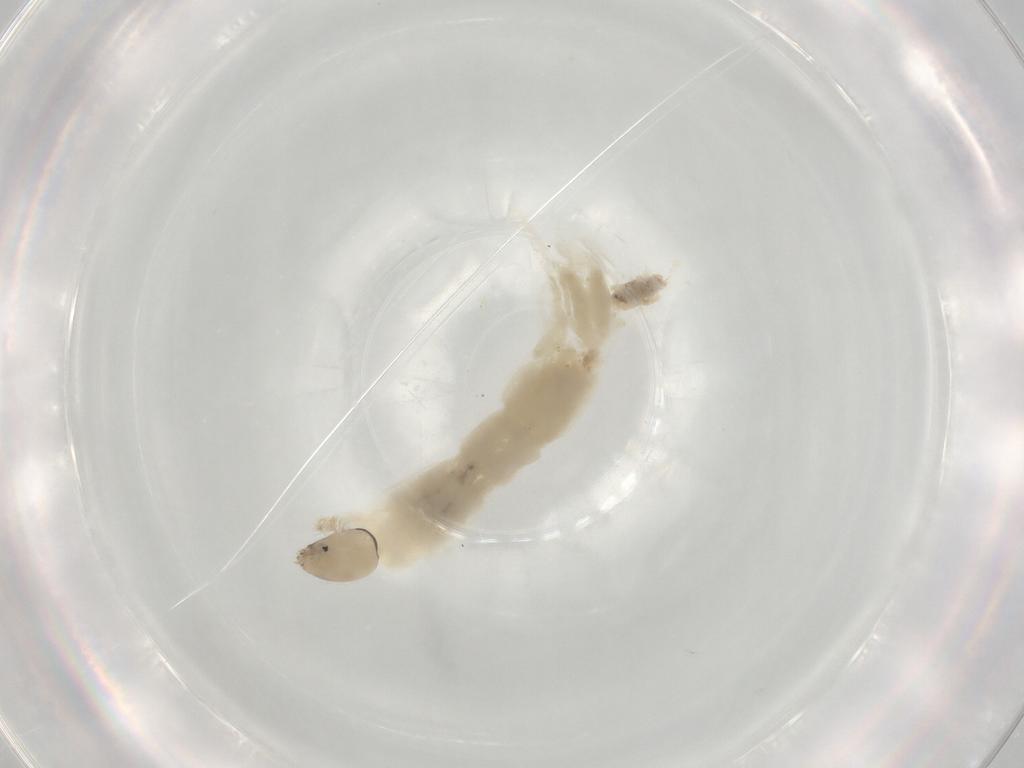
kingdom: Animalia
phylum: Arthropoda
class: Insecta
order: Diptera
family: Chironomidae
